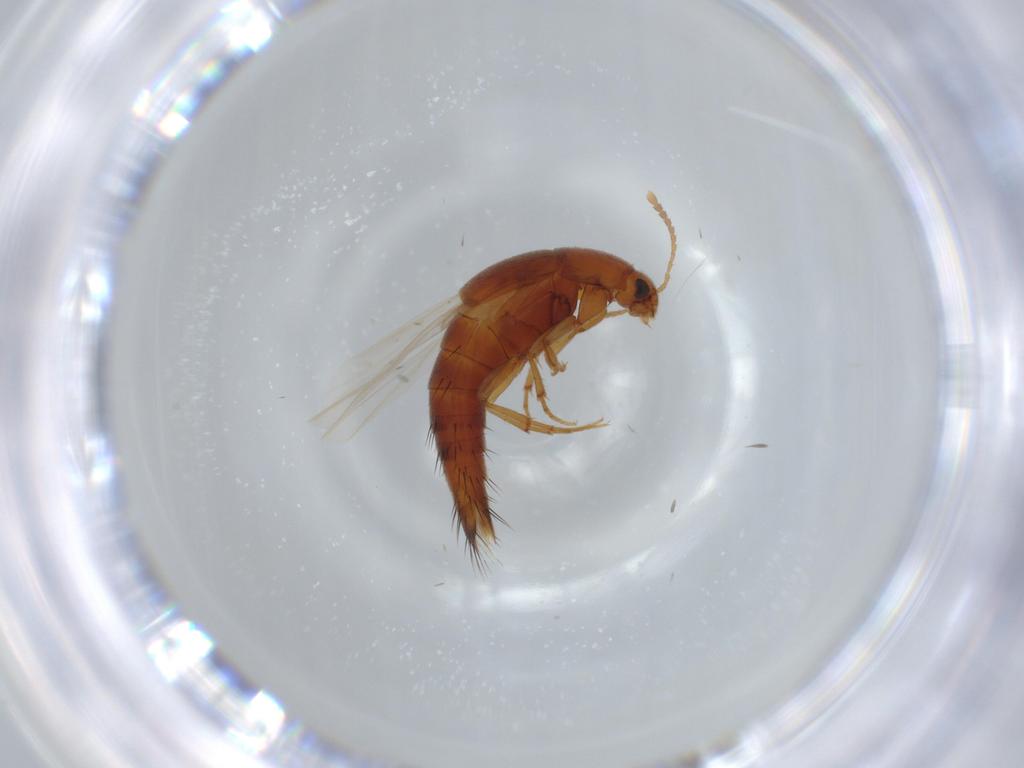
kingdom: Animalia
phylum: Arthropoda
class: Insecta
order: Coleoptera
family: Staphylinidae
